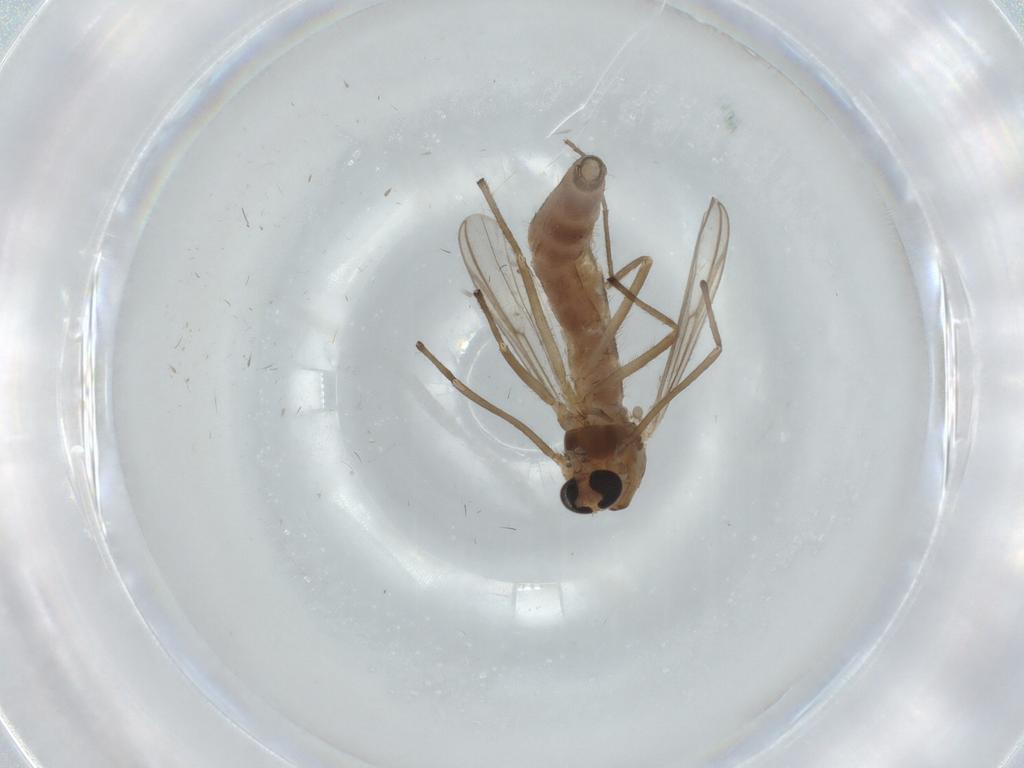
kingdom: Animalia
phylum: Arthropoda
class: Insecta
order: Diptera
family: Chironomidae
